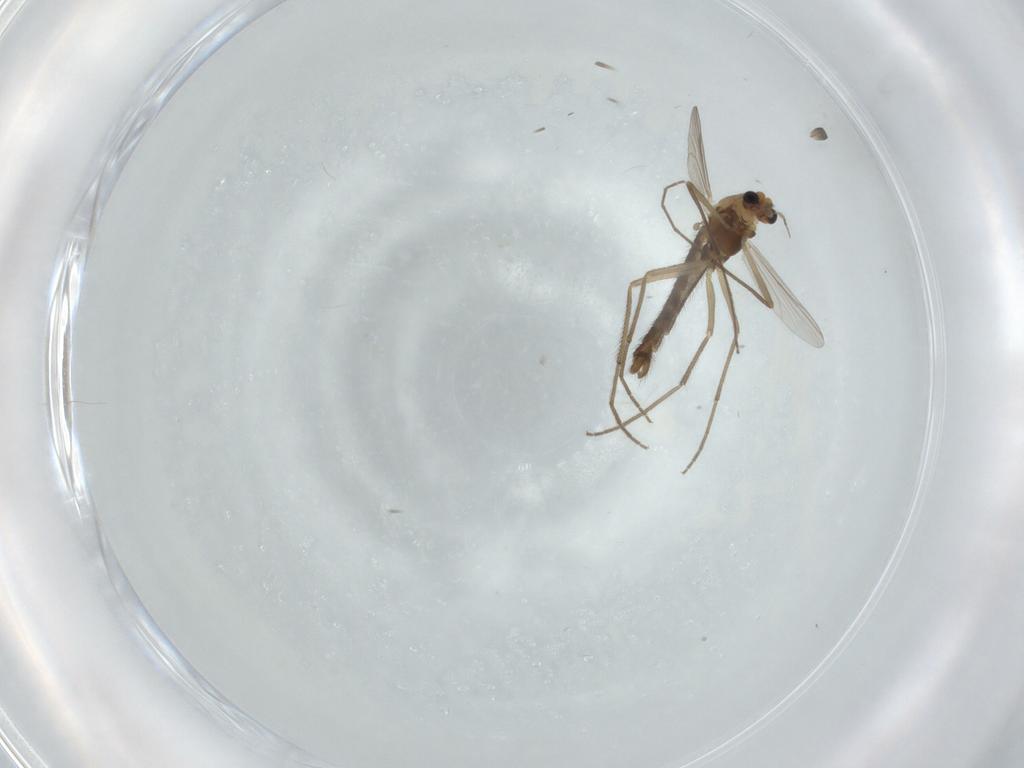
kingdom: Animalia
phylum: Arthropoda
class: Insecta
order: Diptera
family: Chironomidae
